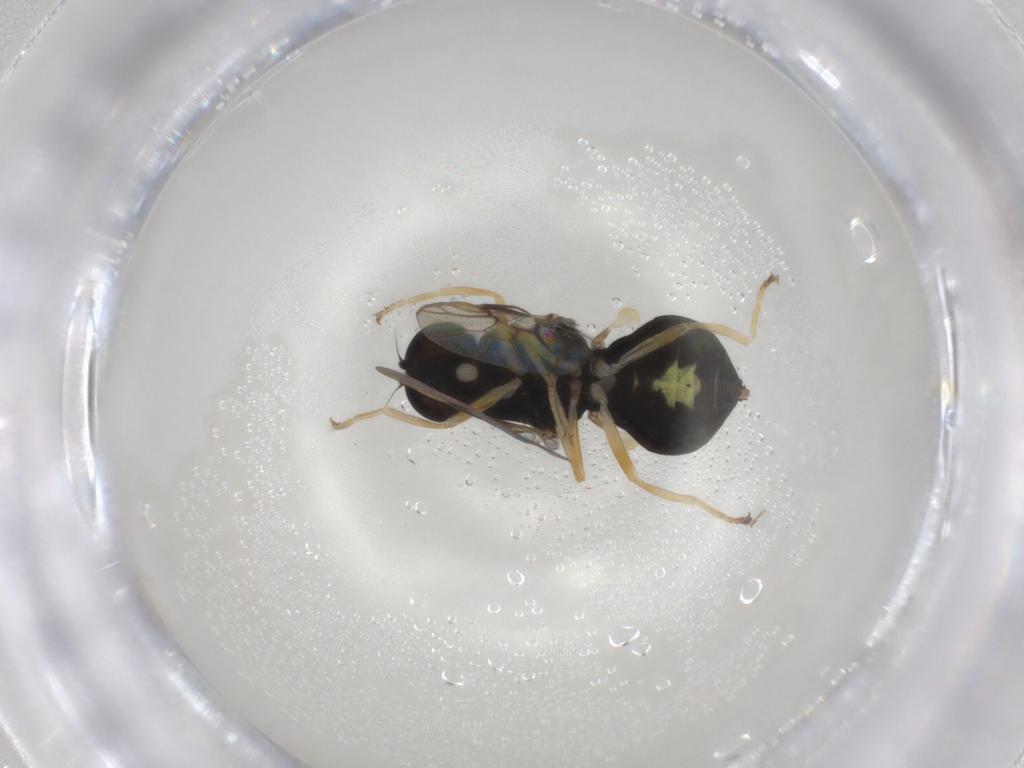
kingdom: Animalia
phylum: Arthropoda
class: Insecta
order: Diptera
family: Stratiomyidae
